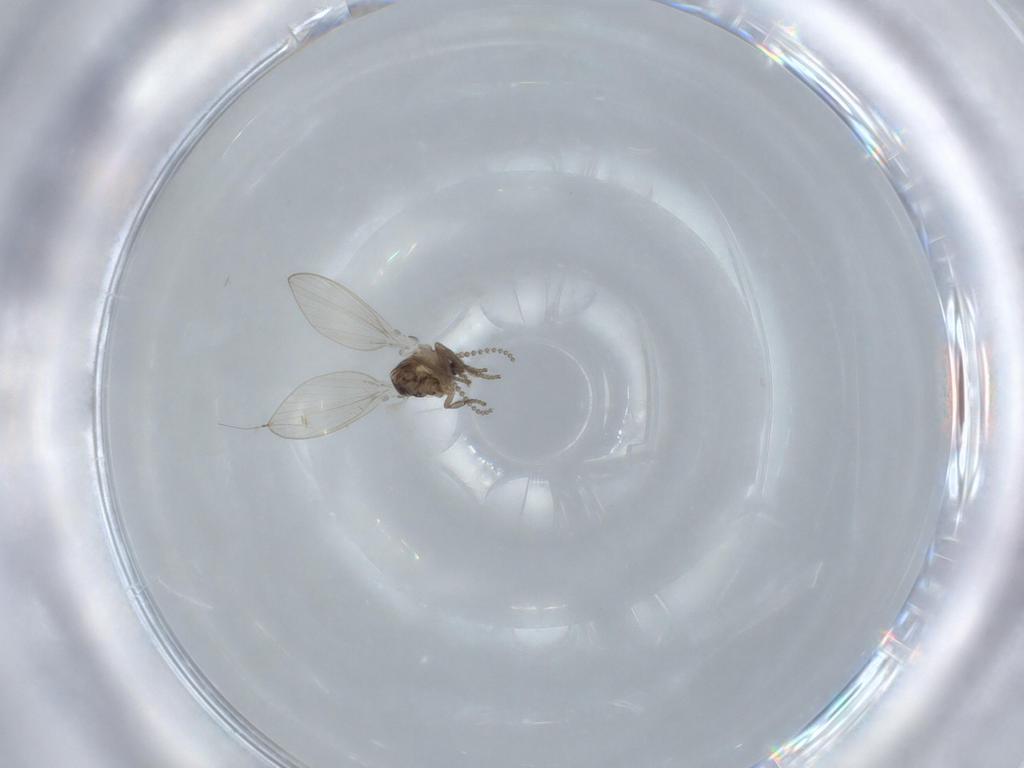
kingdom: Animalia
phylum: Arthropoda
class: Insecta
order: Diptera
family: Psychodidae
